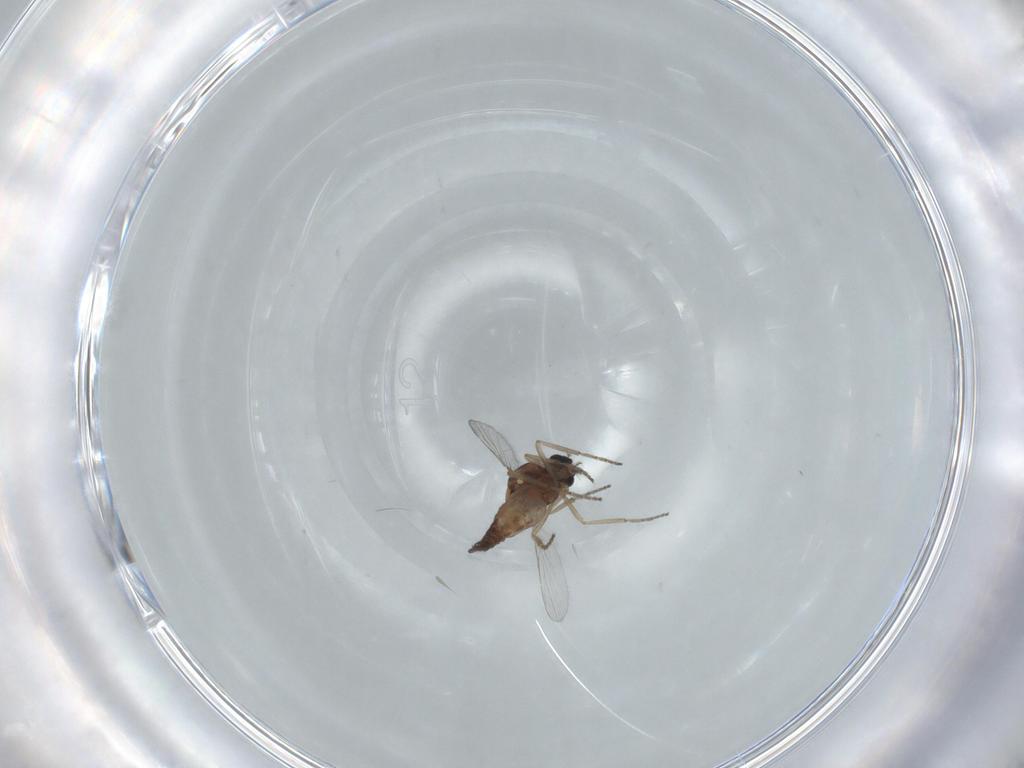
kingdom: Animalia
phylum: Arthropoda
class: Insecta
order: Diptera
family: Ceratopogonidae
